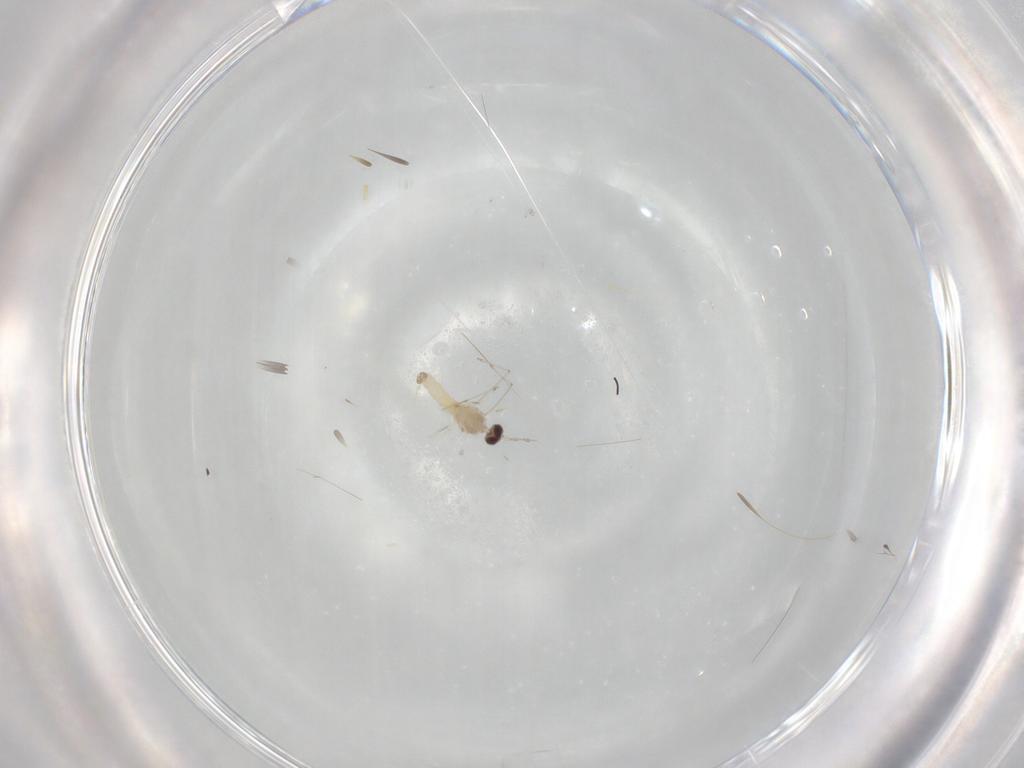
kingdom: Animalia
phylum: Arthropoda
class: Insecta
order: Diptera
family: Cecidomyiidae
